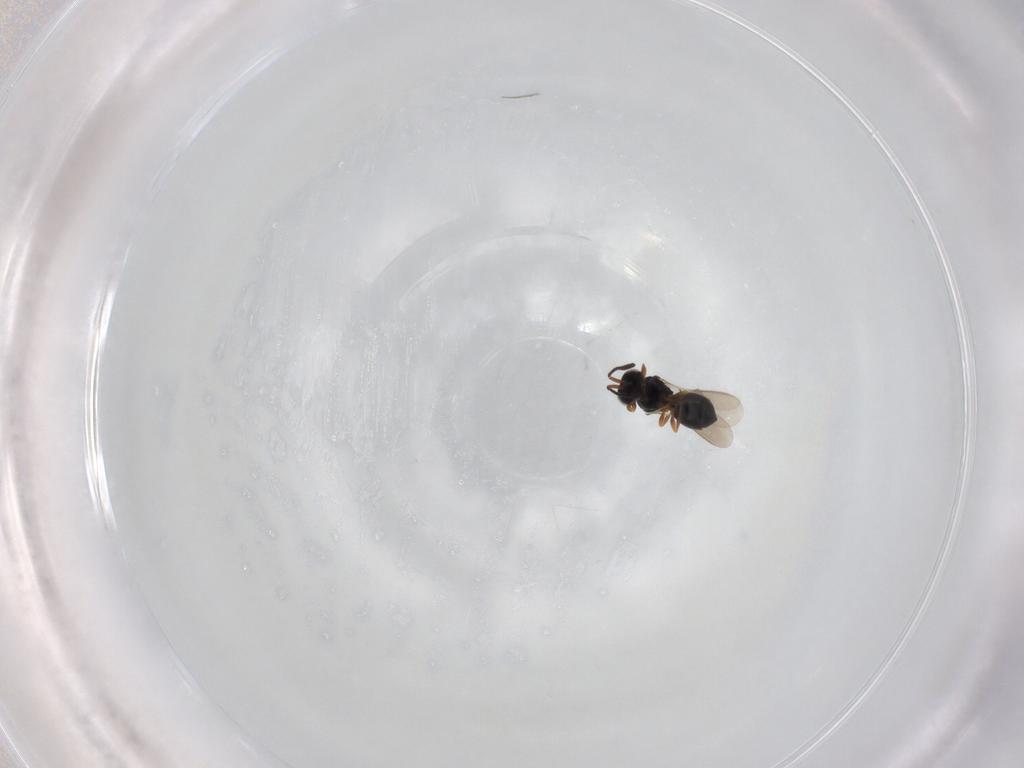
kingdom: Animalia
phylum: Arthropoda
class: Insecta
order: Hymenoptera
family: Scelionidae
